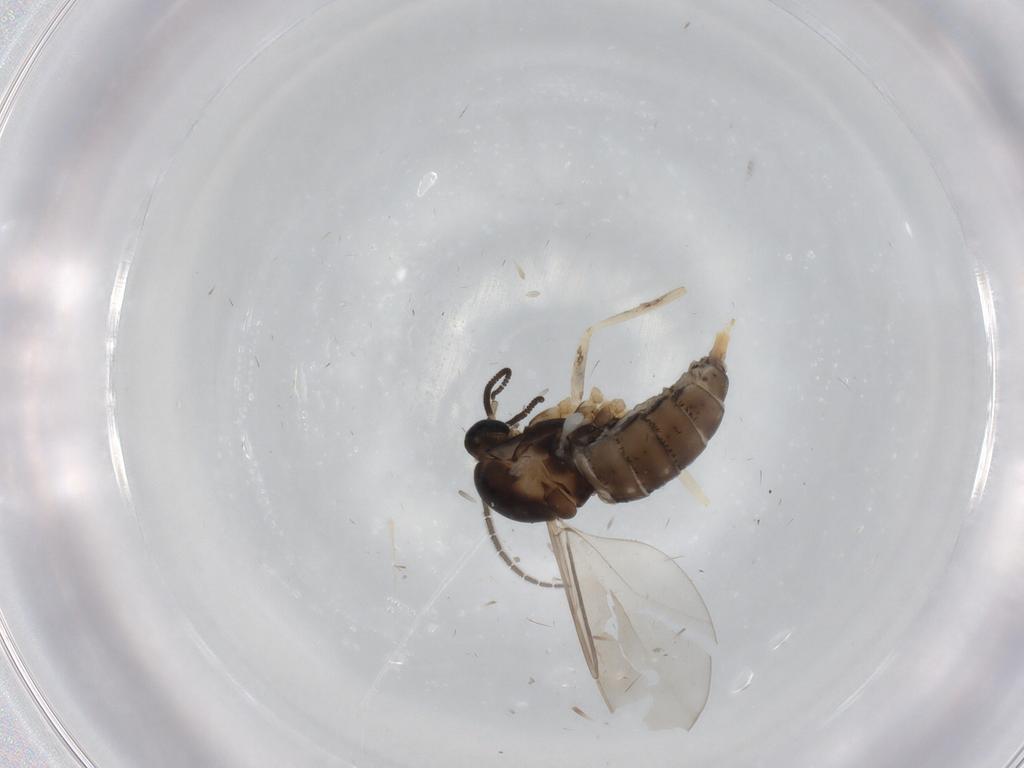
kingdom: Animalia
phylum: Arthropoda
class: Insecta
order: Diptera
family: Cecidomyiidae
